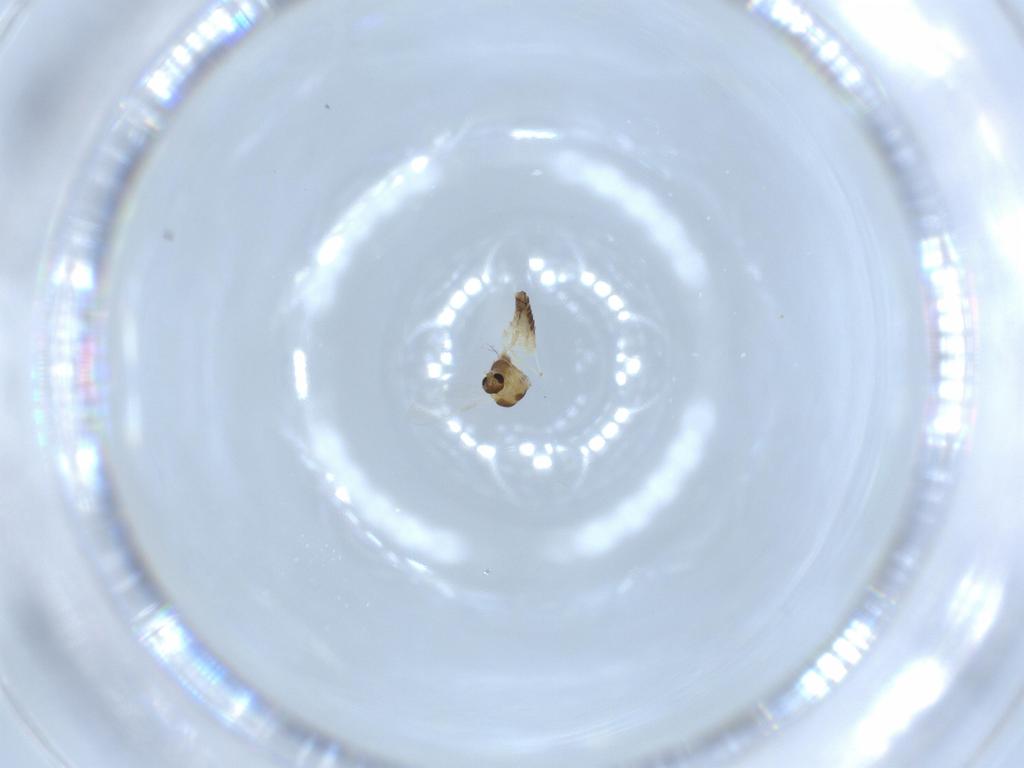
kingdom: Animalia
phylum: Arthropoda
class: Insecta
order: Diptera
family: Chironomidae
